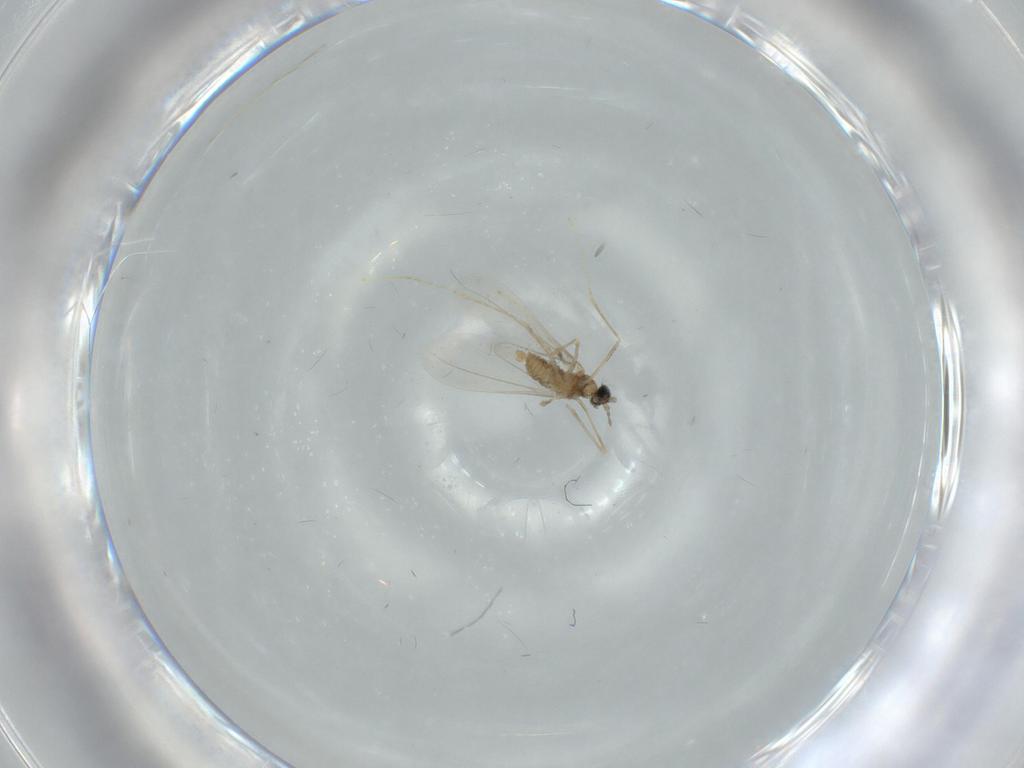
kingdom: Animalia
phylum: Arthropoda
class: Insecta
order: Diptera
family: Cecidomyiidae
